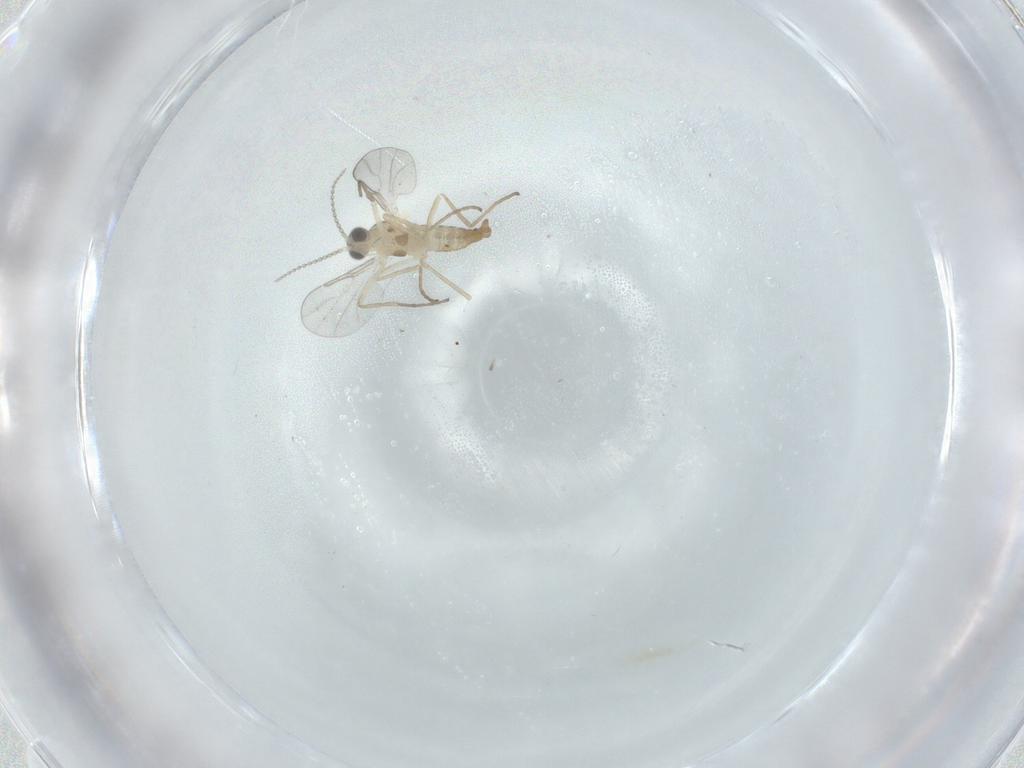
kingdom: Animalia
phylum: Arthropoda
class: Insecta
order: Diptera
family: Cecidomyiidae
